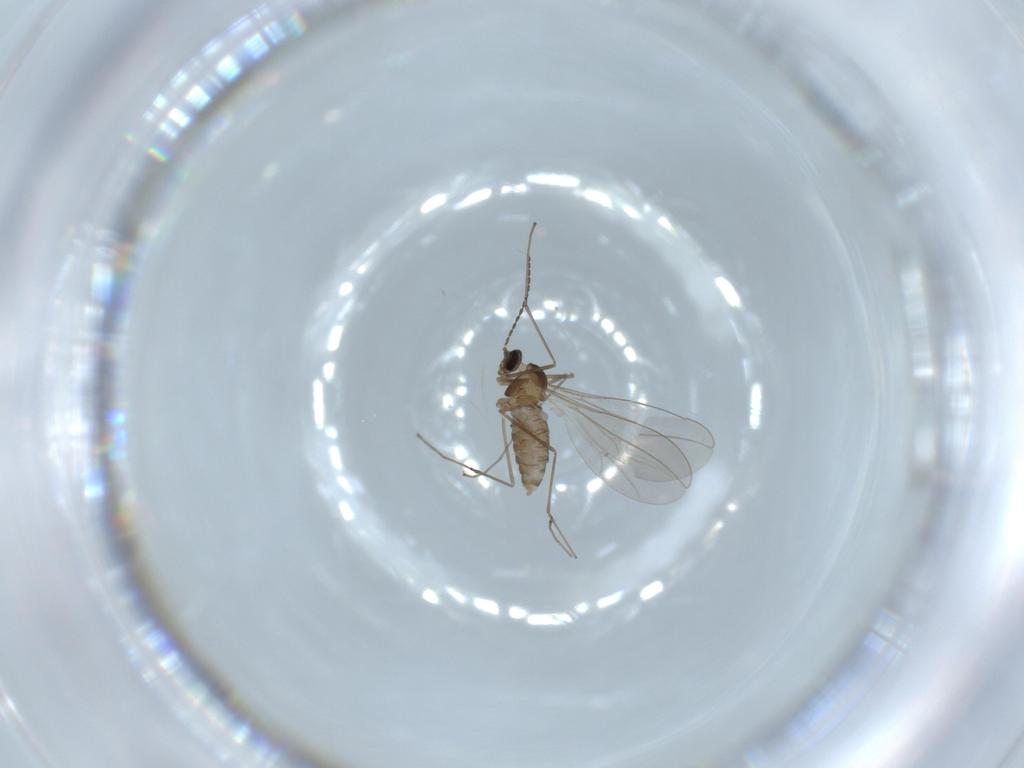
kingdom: Animalia
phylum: Arthropoda
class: Insecta
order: Diptera
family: Cecidomyiidae
